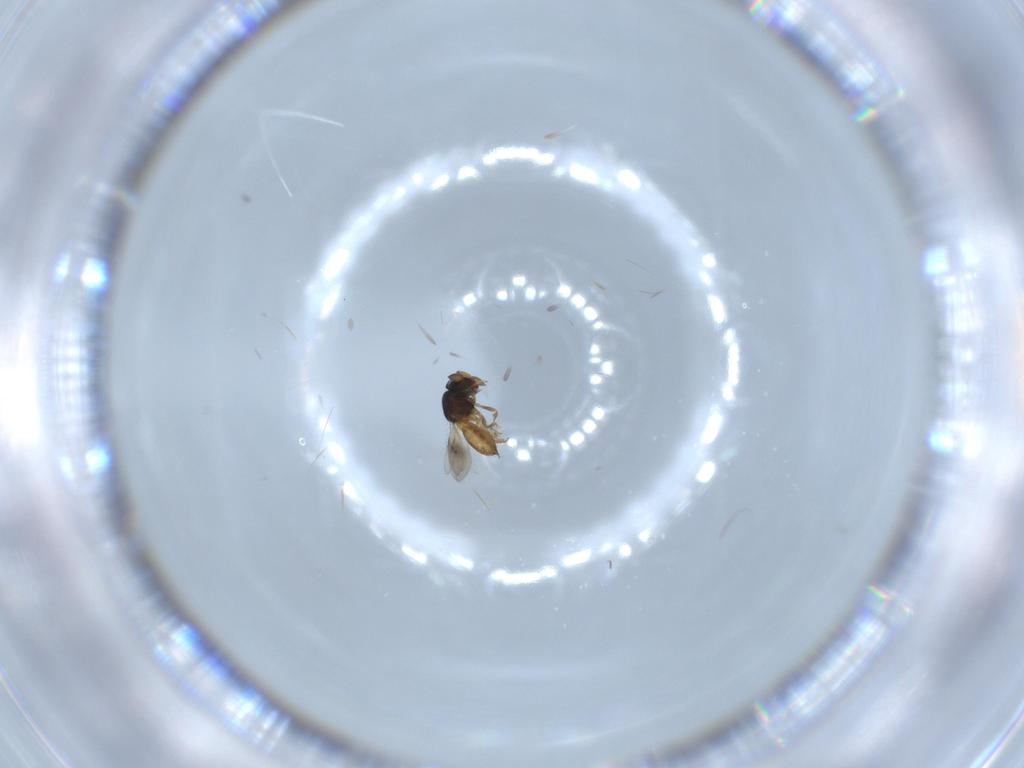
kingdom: Animalia
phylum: Arthropoda
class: Insecta
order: Hymenoptera
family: Scelionidae
